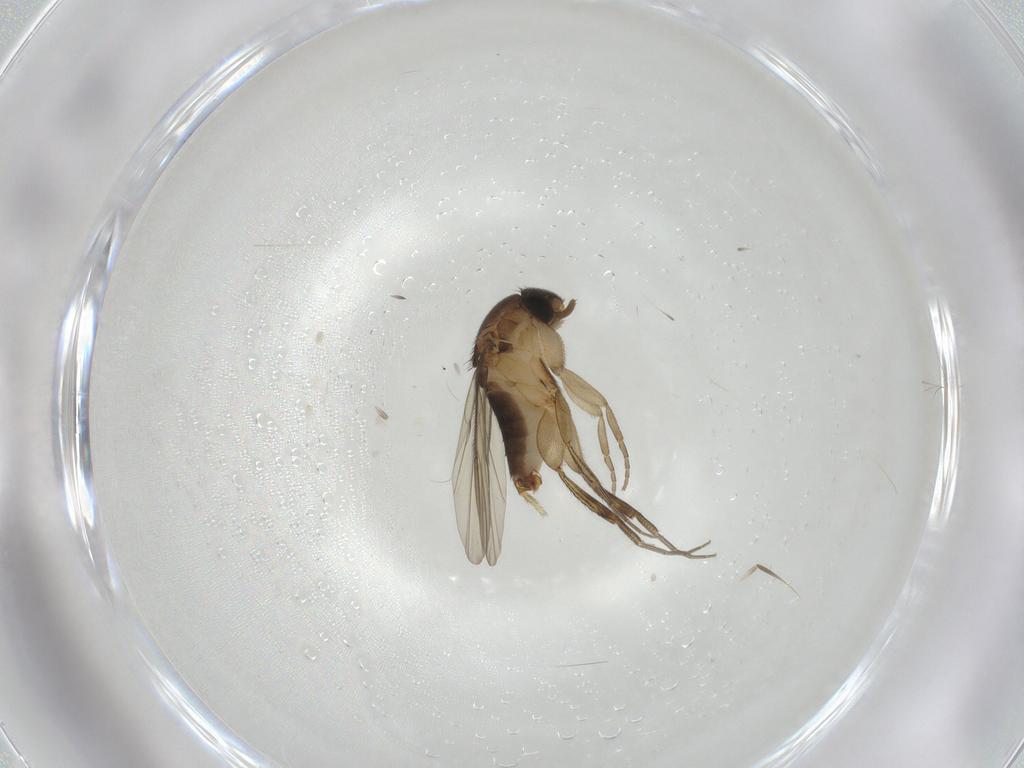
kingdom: Animalia
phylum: Arthropoda
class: Insecta
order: Diptera
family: Phoridae
